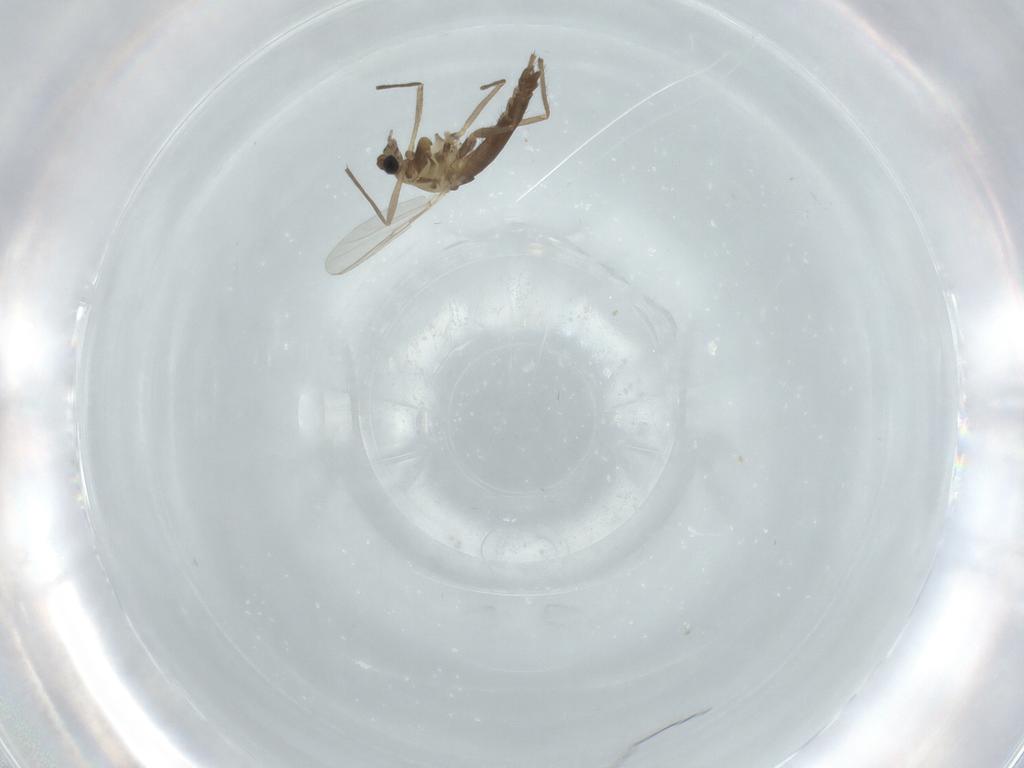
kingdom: Animalia
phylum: Arthropoda
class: Insecta
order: Diptera
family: Chironomidae
